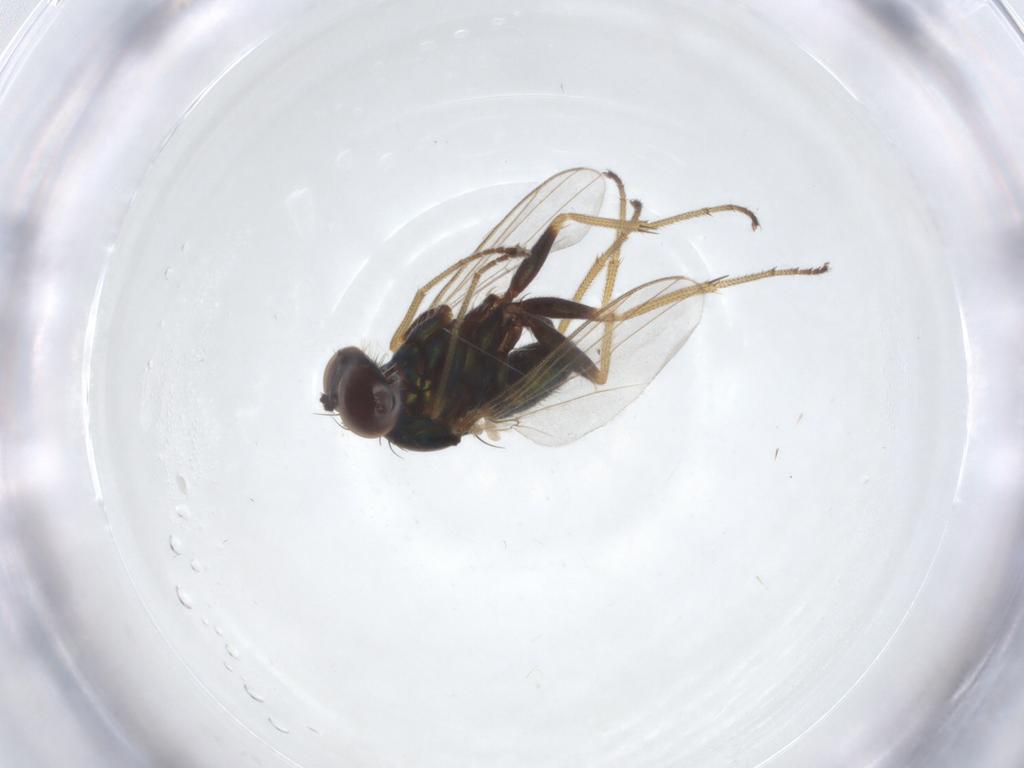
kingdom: Animalia
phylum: Arthropoda
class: Insecta
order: Diptera
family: Dolichopodidae
